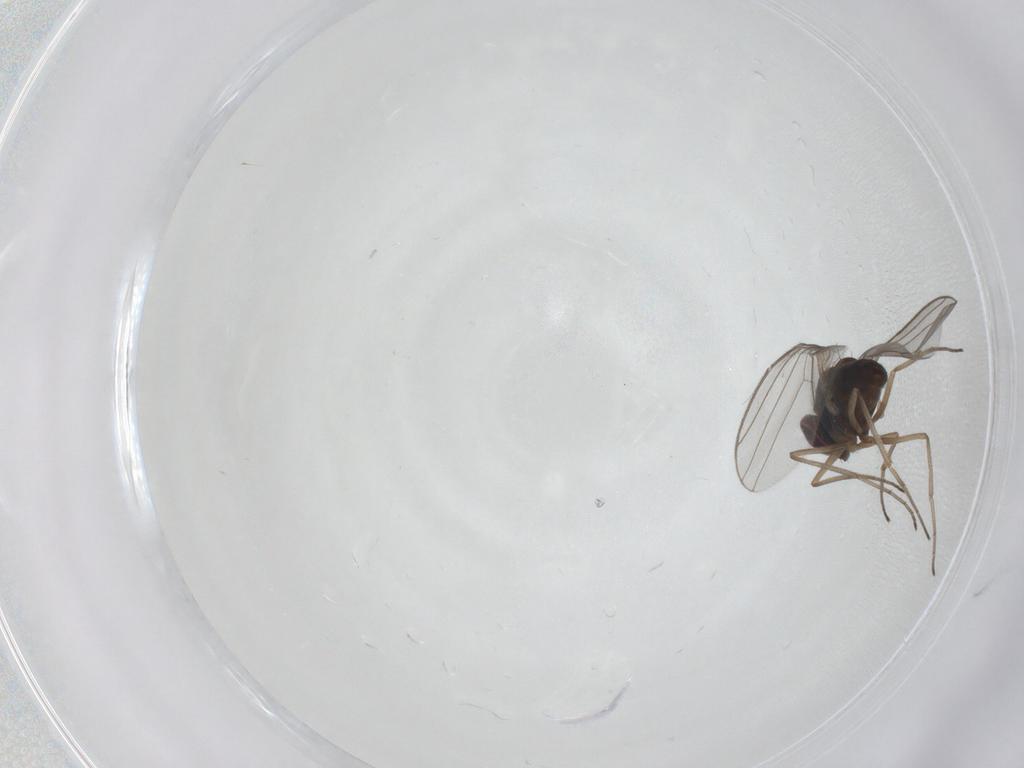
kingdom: Animalia
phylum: Arthropoda
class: Insecta
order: Diptera
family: Dolichopodidae
